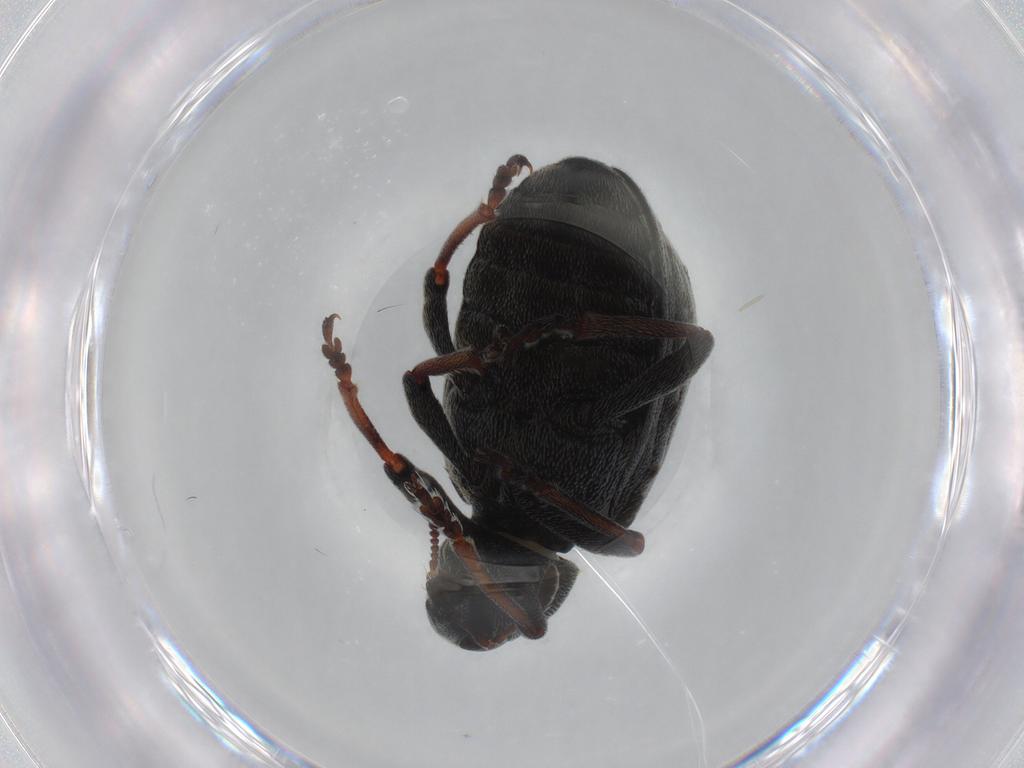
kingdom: Animalia
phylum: Arthropoda
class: Insecta
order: Coleoptera
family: Curculionidae
